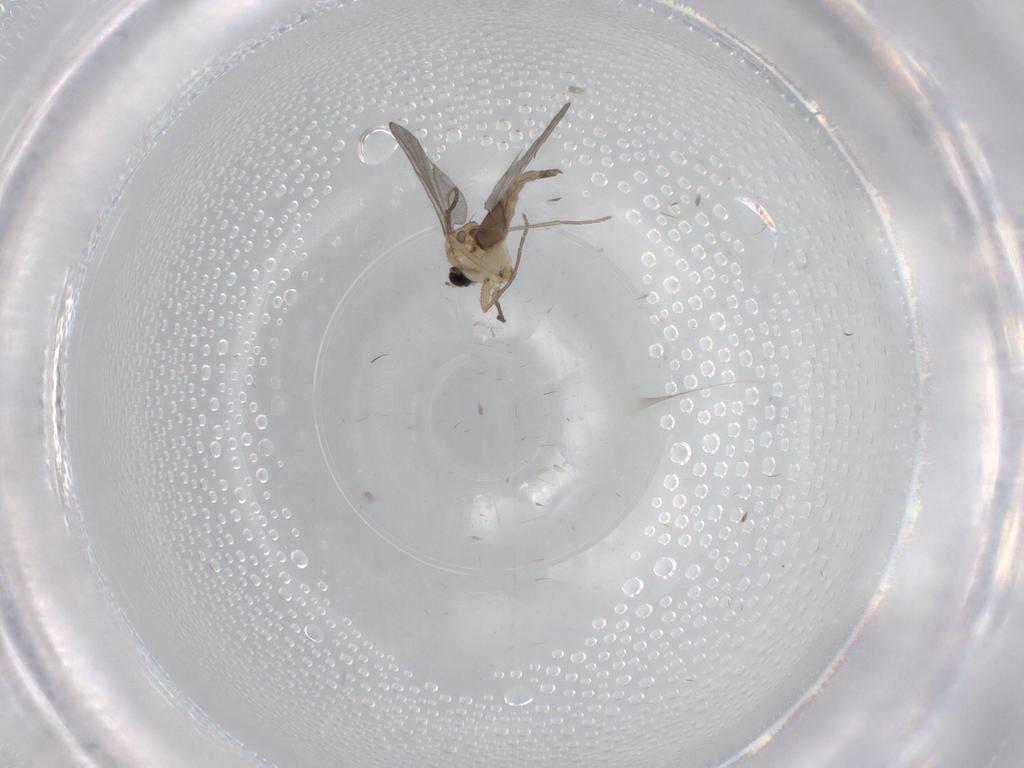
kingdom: Animalia
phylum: Arthropoda
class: Insecta
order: Diptera
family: Sciaridae
